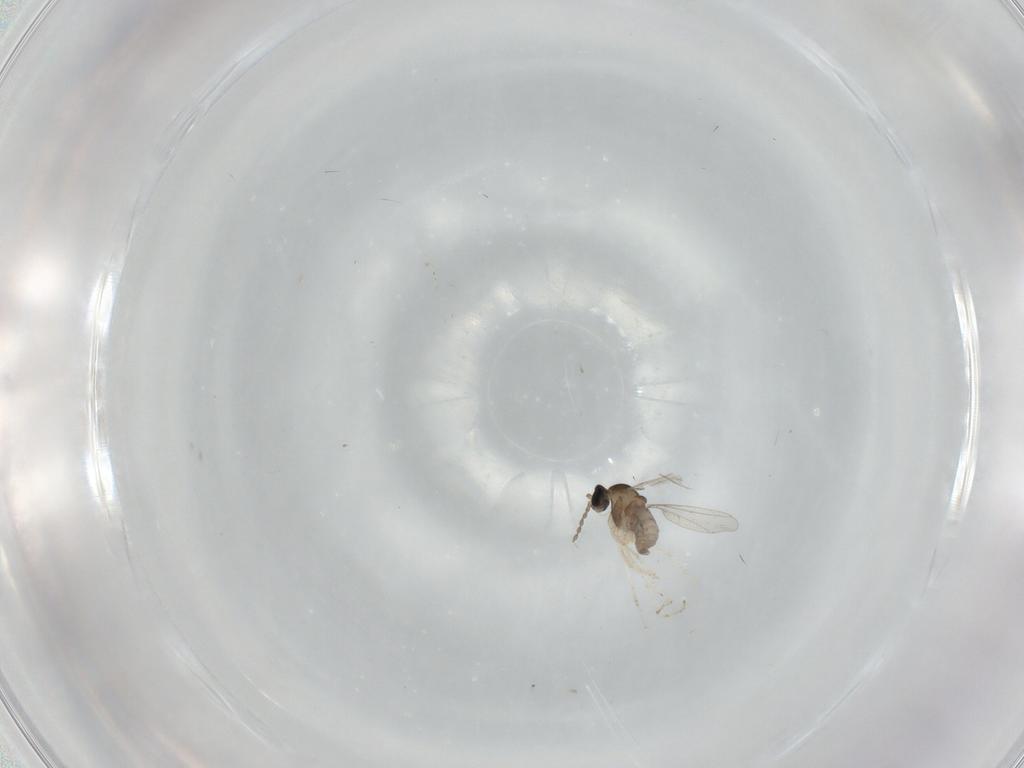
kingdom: Animalia
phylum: Arthropoda
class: Insecta
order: Diptera
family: Cecidomyiidae
